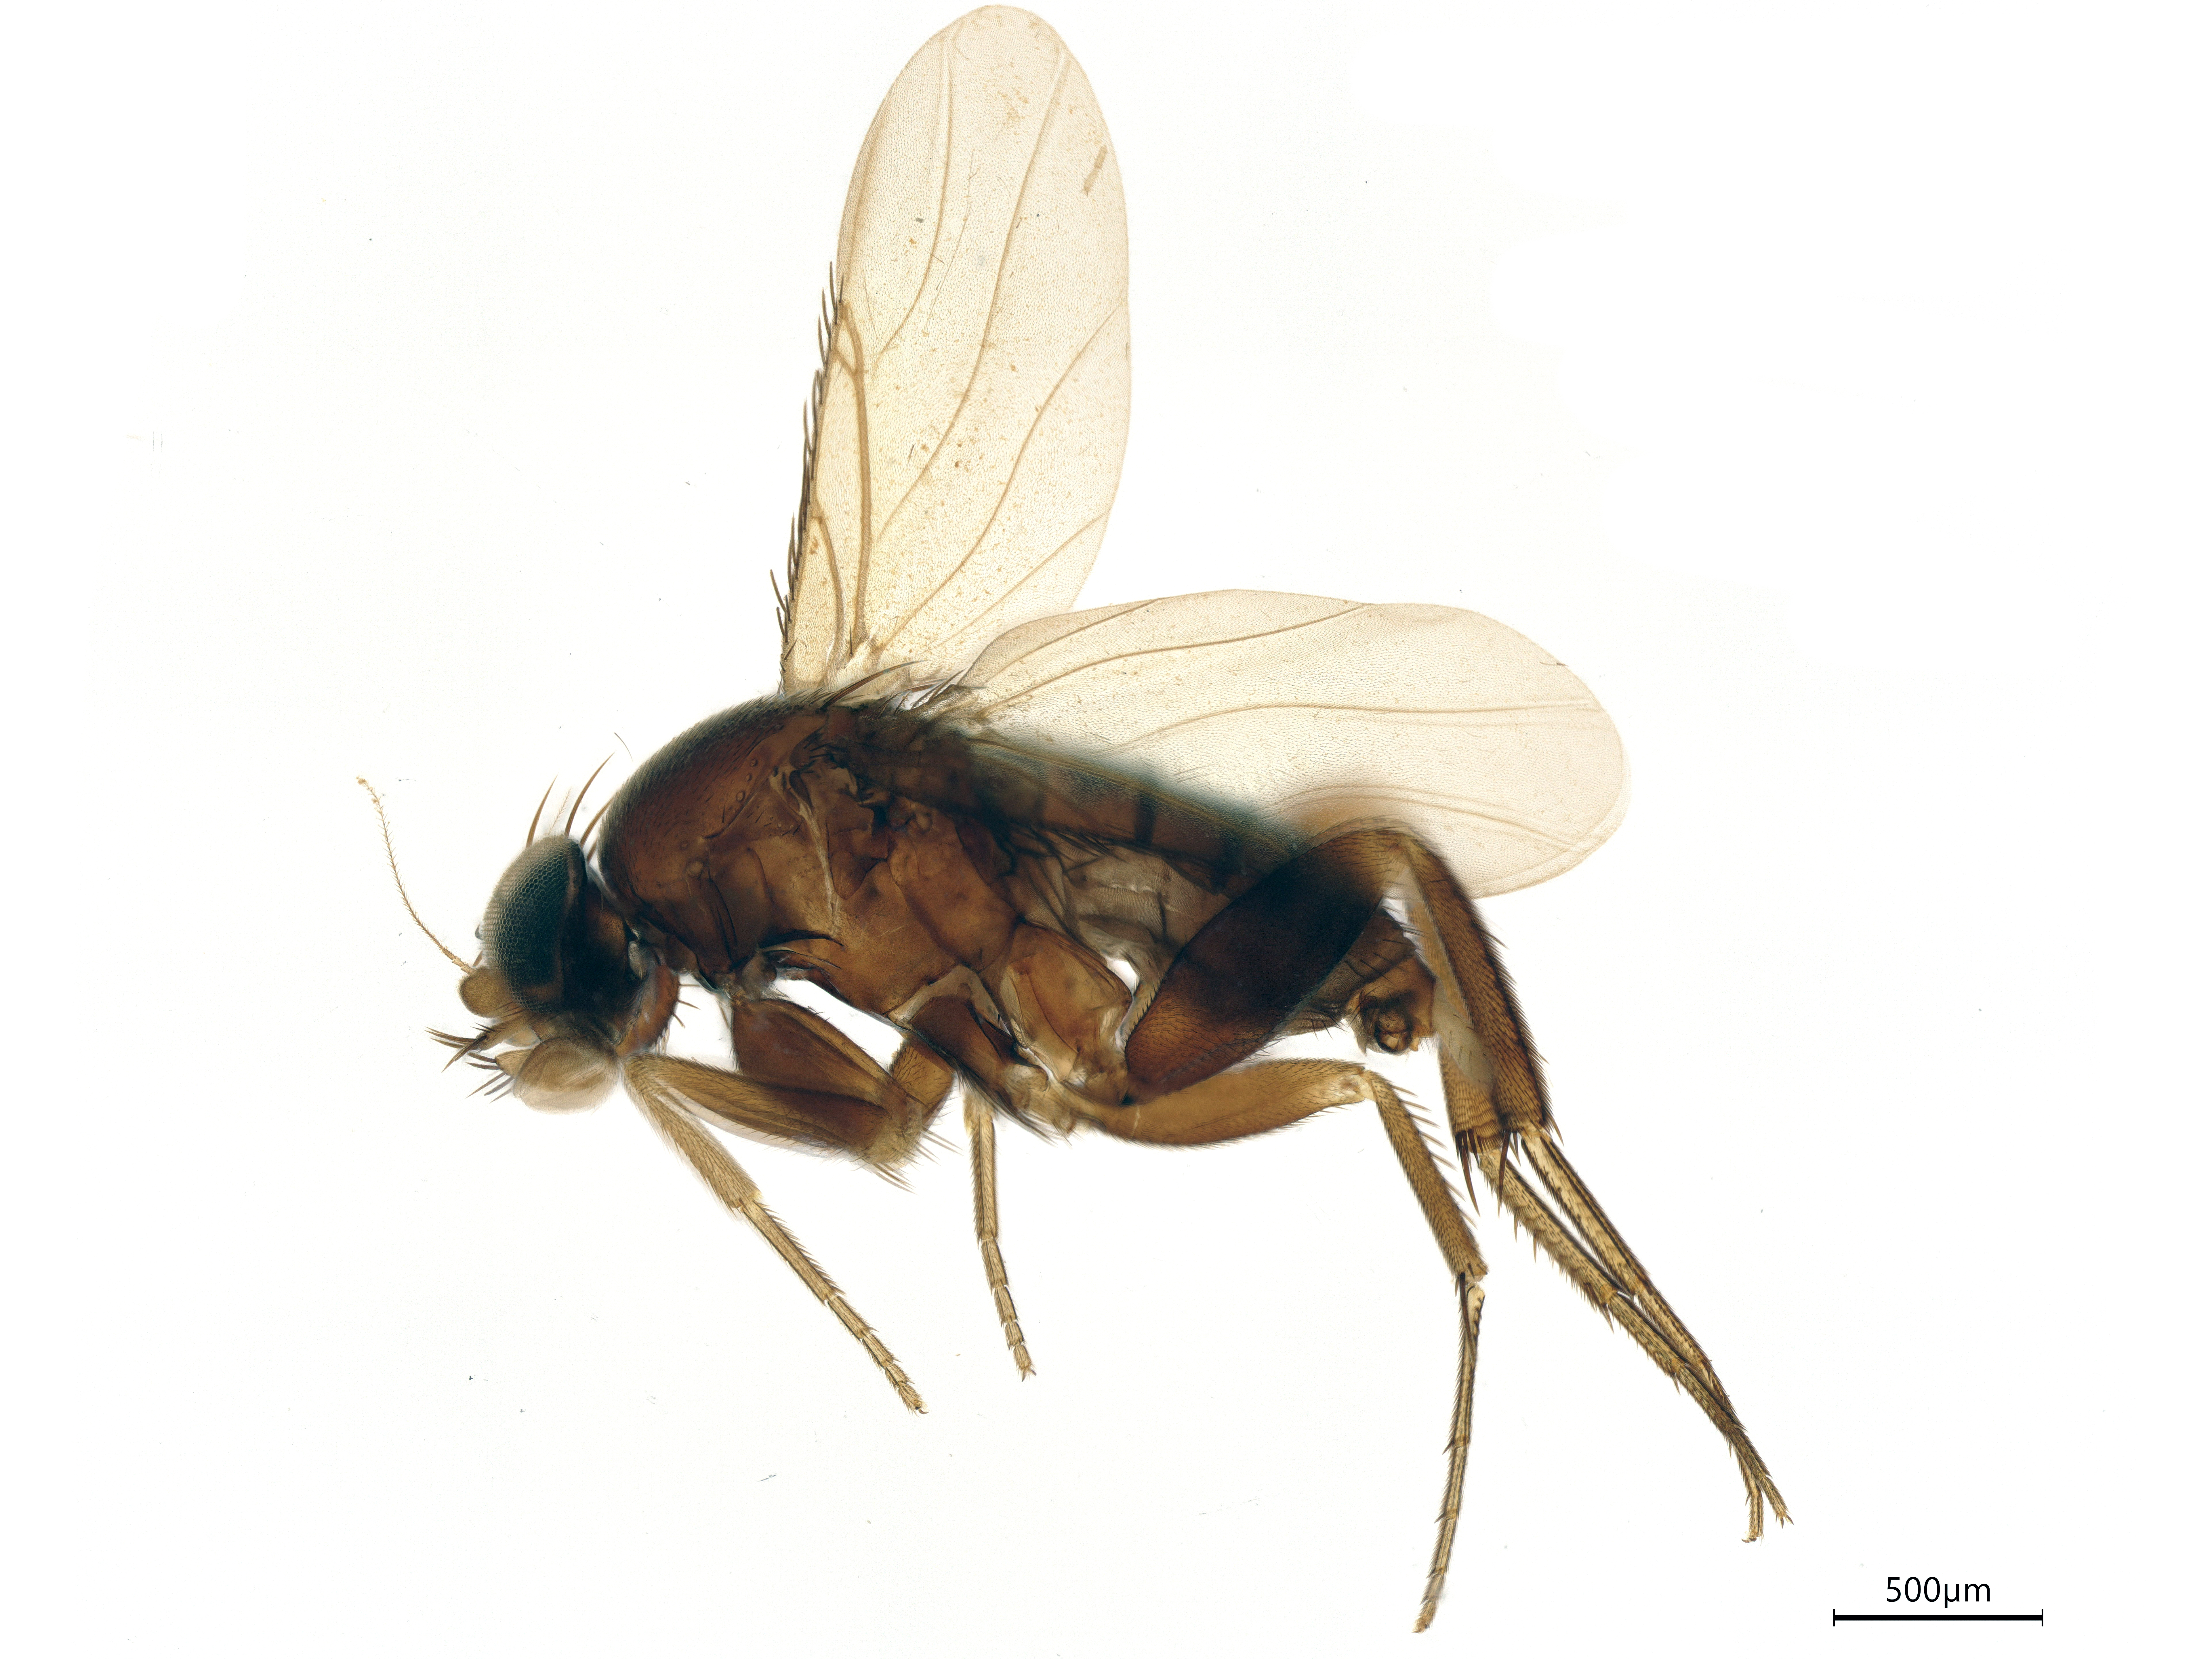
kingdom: Animalia
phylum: Arthropoda
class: Insecta
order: Diptera
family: Phoridae
